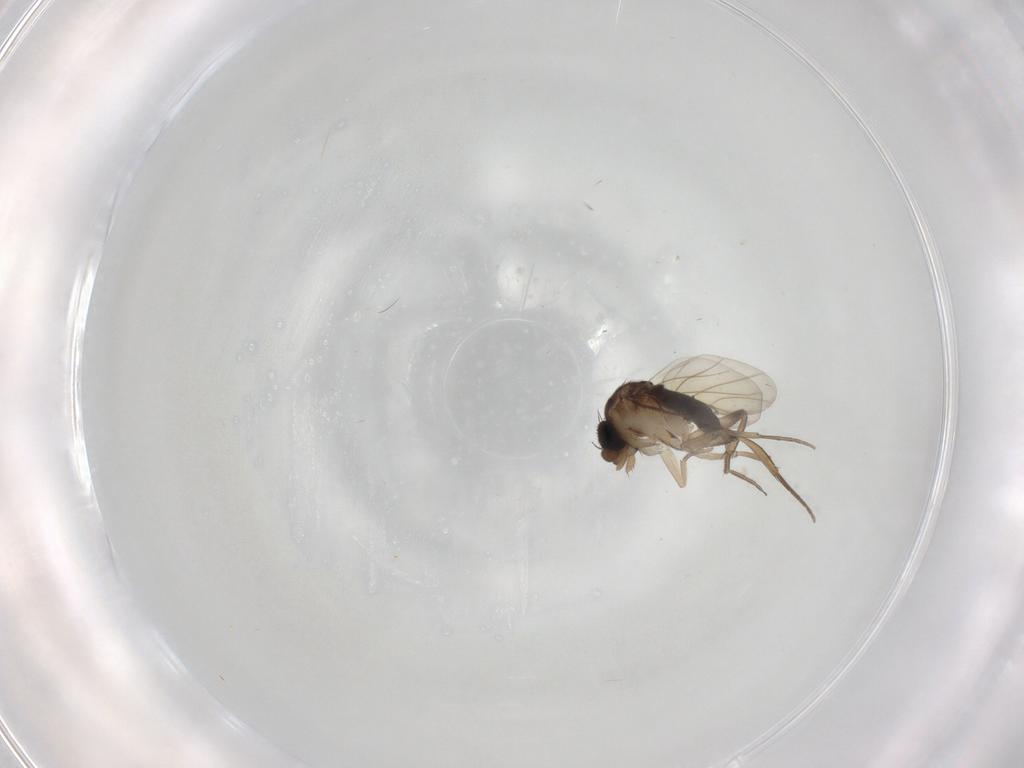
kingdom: Animalia
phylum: Arthropoda
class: Insecta
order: Diptera
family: Phoridae
